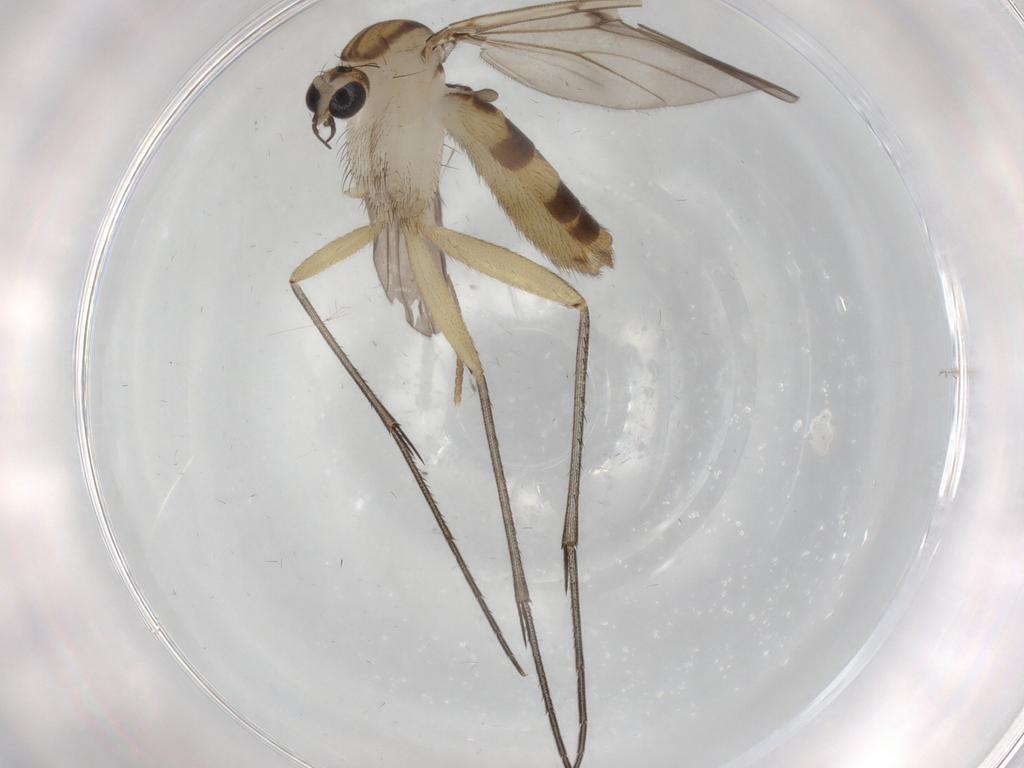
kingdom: Animalia
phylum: Arthropoda
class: Insecta
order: Diptera
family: Mycetophilidae
